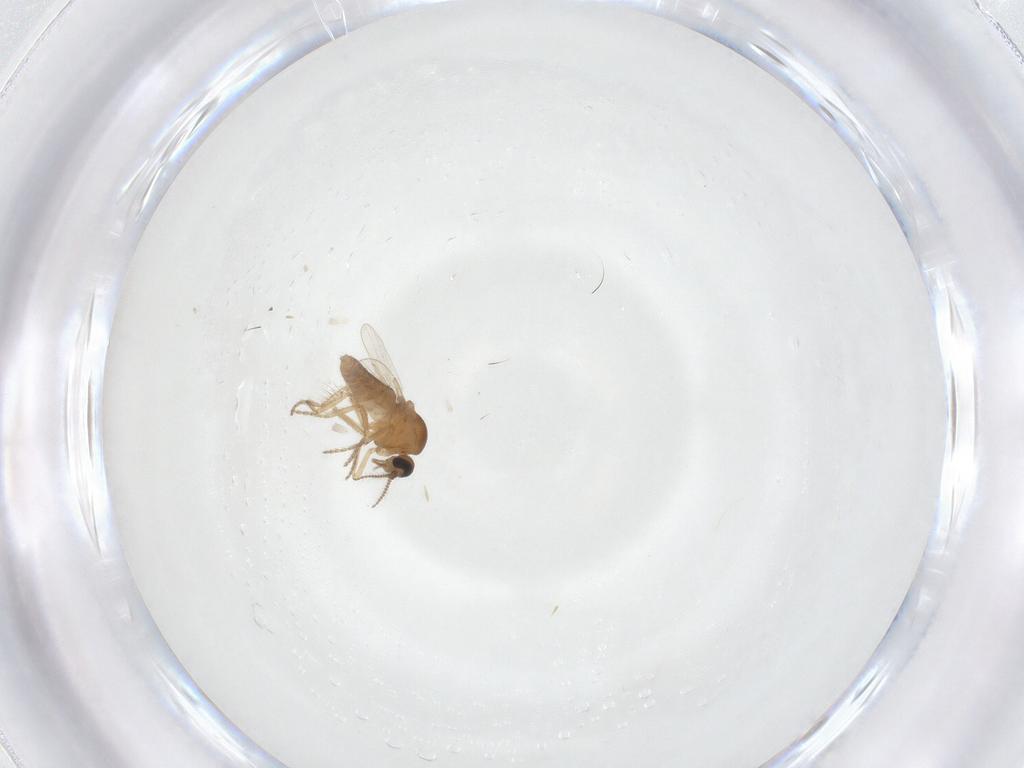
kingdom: Animalia
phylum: Arthropoda
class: Insecta
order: Diptera
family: Ceratopogonidae
